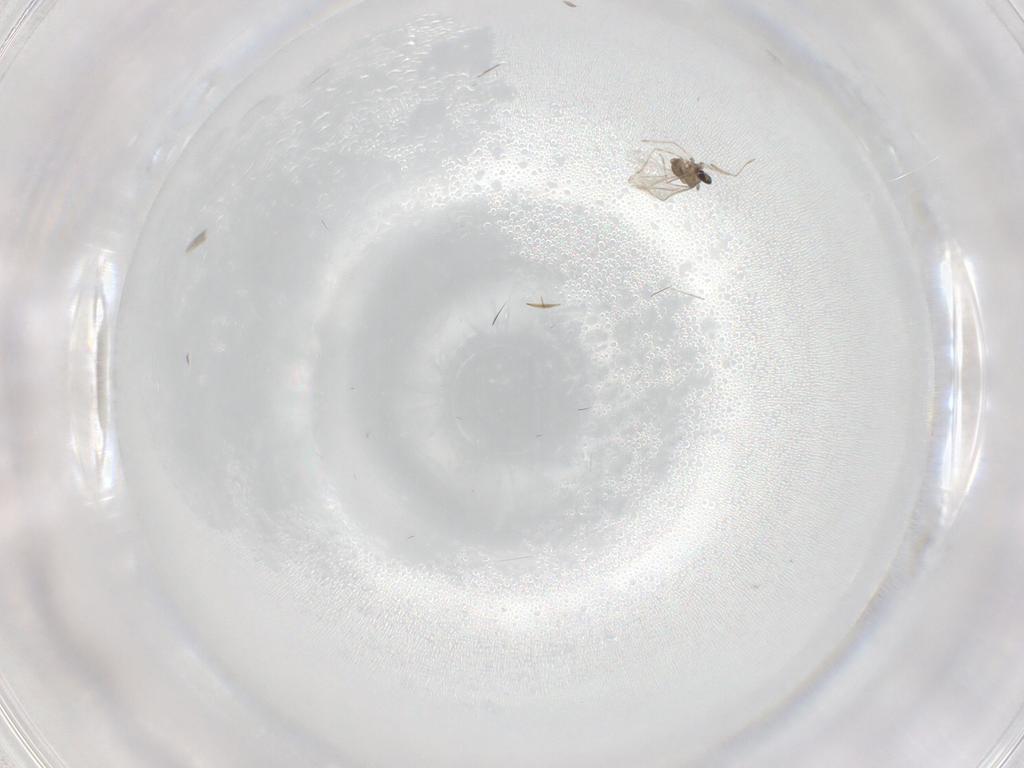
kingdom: Animalia
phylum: Arthropoda
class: Insecta
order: Diptera
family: Cecidomyiidae
